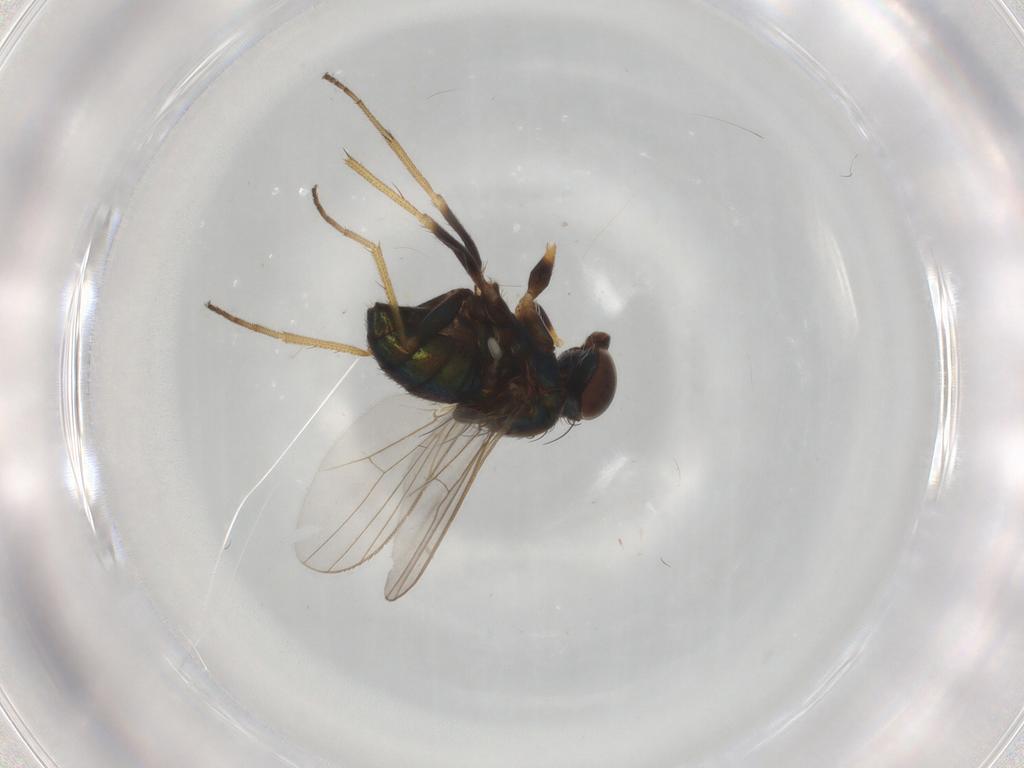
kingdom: Animalia
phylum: Arthropoda
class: Insecta
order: Diptera
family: Chironomidae
